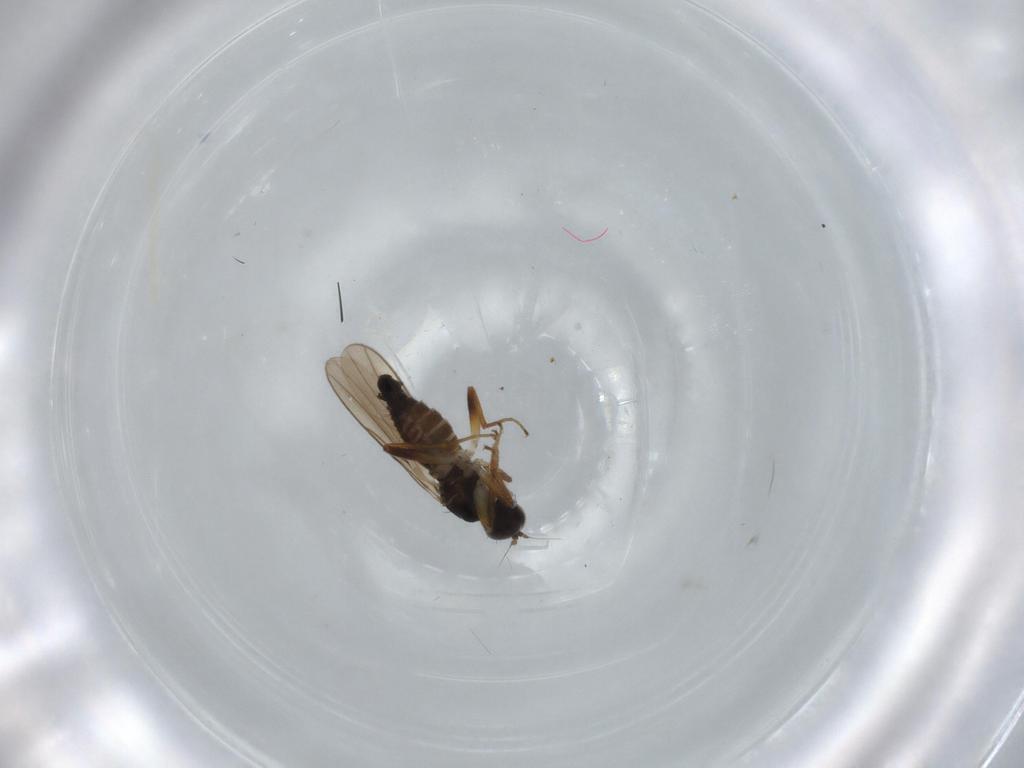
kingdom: Animalia
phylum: Arthropoda
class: Insecta
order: Diptera
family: Hybotidae
